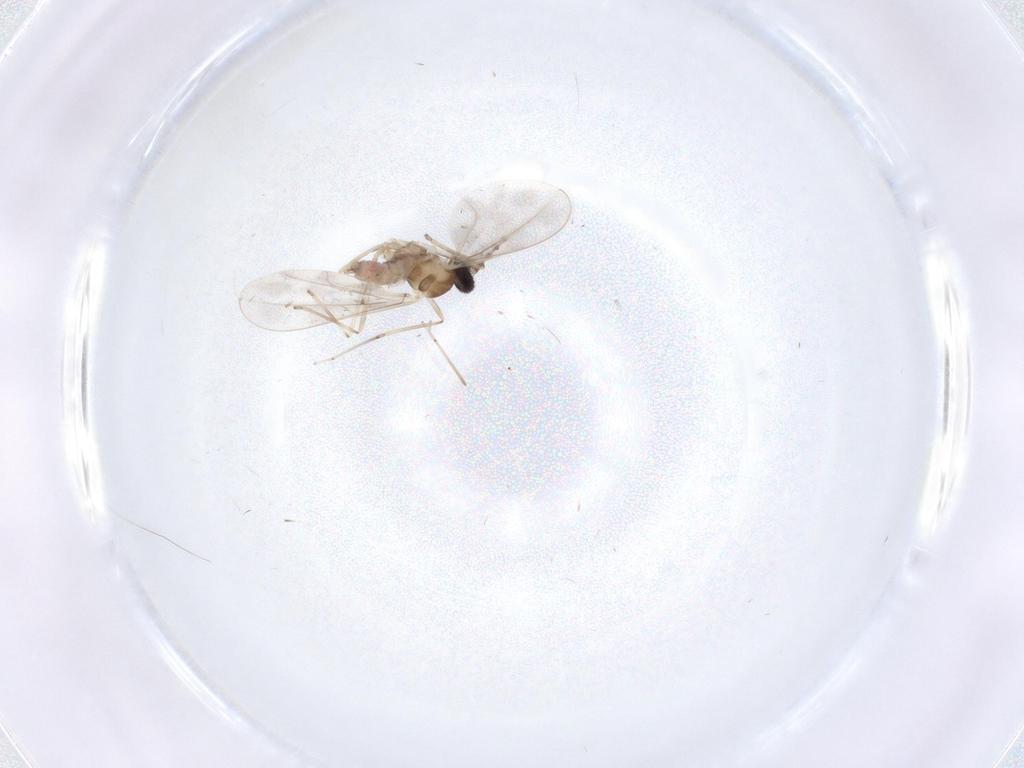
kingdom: Animalia
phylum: Arthropoda
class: Insecta
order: Diptera
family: Cecidomyiidae
